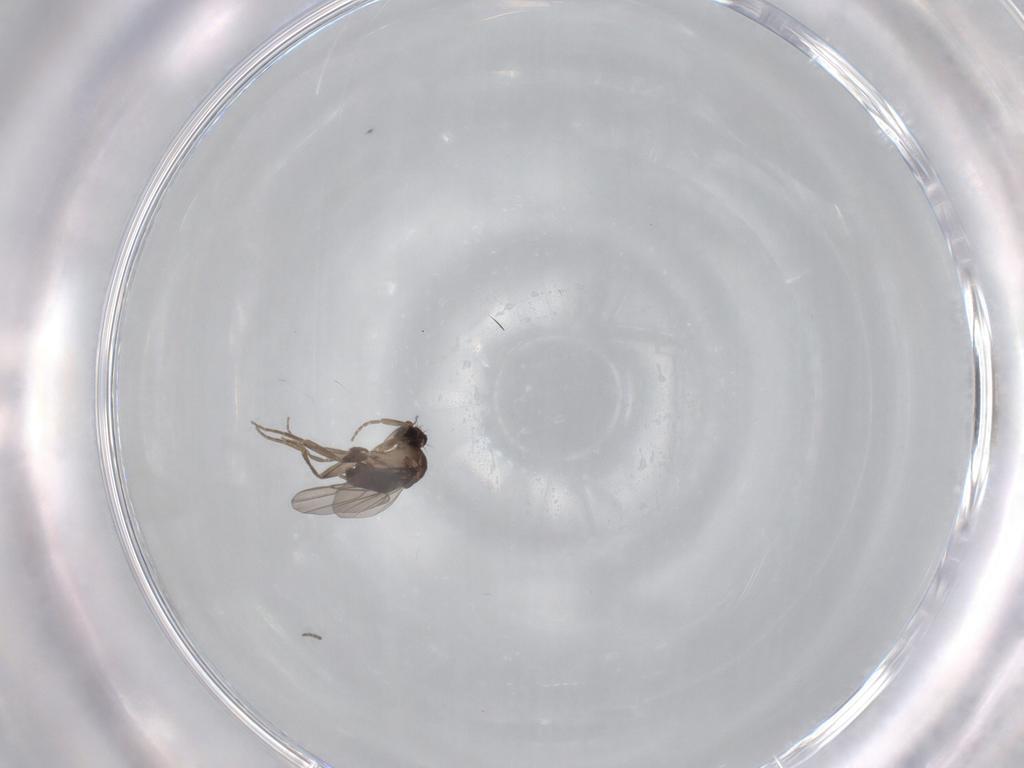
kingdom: Animalia
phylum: Arthropoda
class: Insecta
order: Diptera
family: Phoridae
